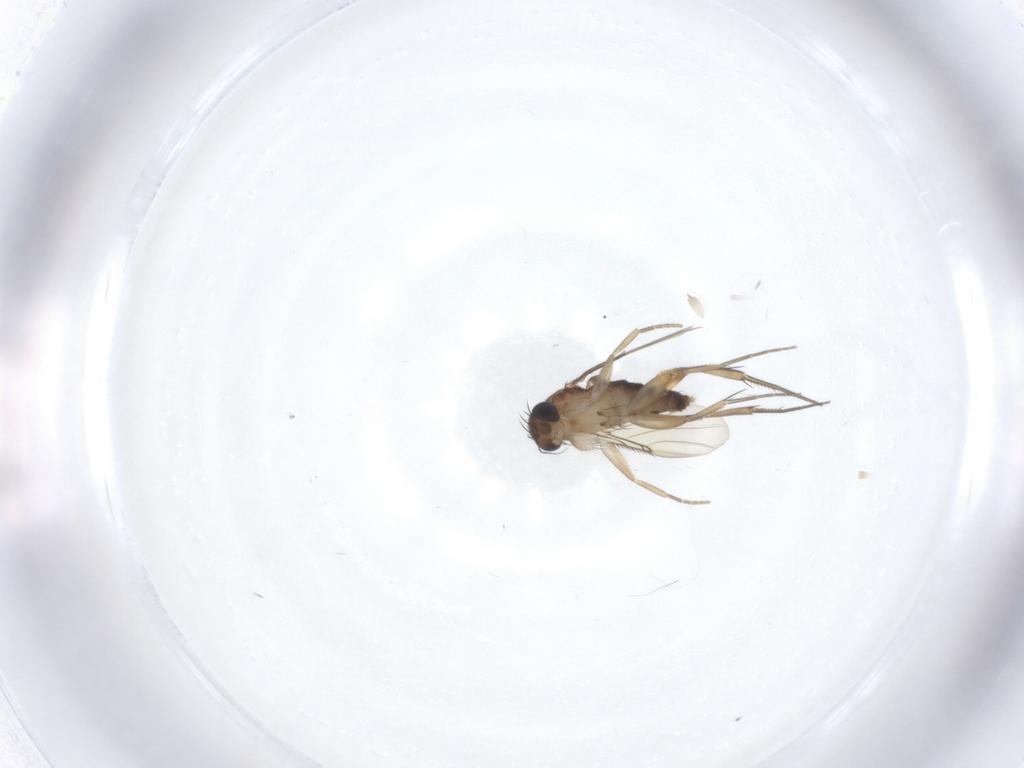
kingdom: Animalia
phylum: Arthropoda
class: Insecta
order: Diptera
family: Phoridae
